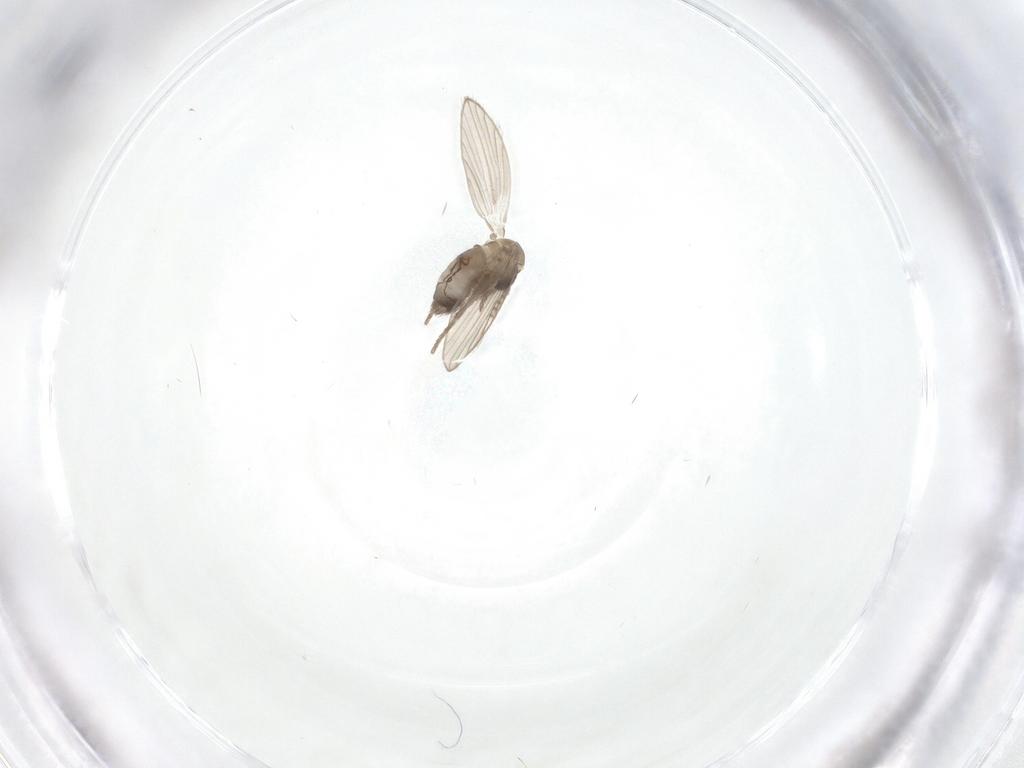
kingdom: Animalia
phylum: Arthropoda
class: Insecta
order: Diptera
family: Psychodidae
